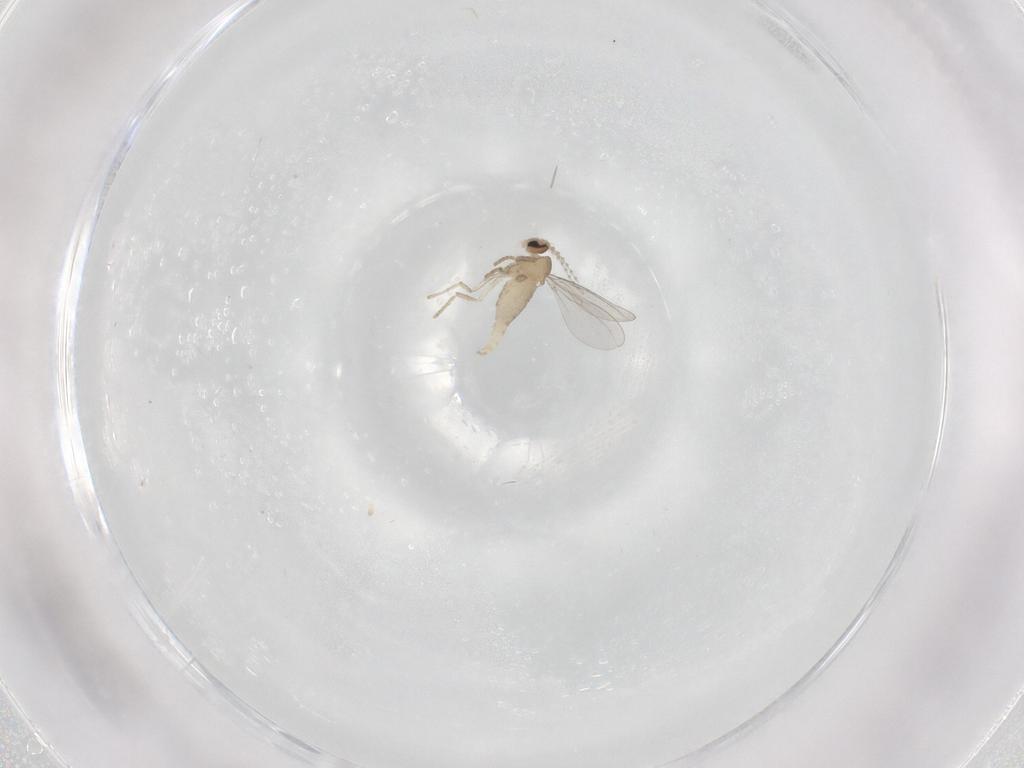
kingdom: Animalia
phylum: Arthropoda
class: Insecta
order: Diptera
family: Cecidomyiidae
